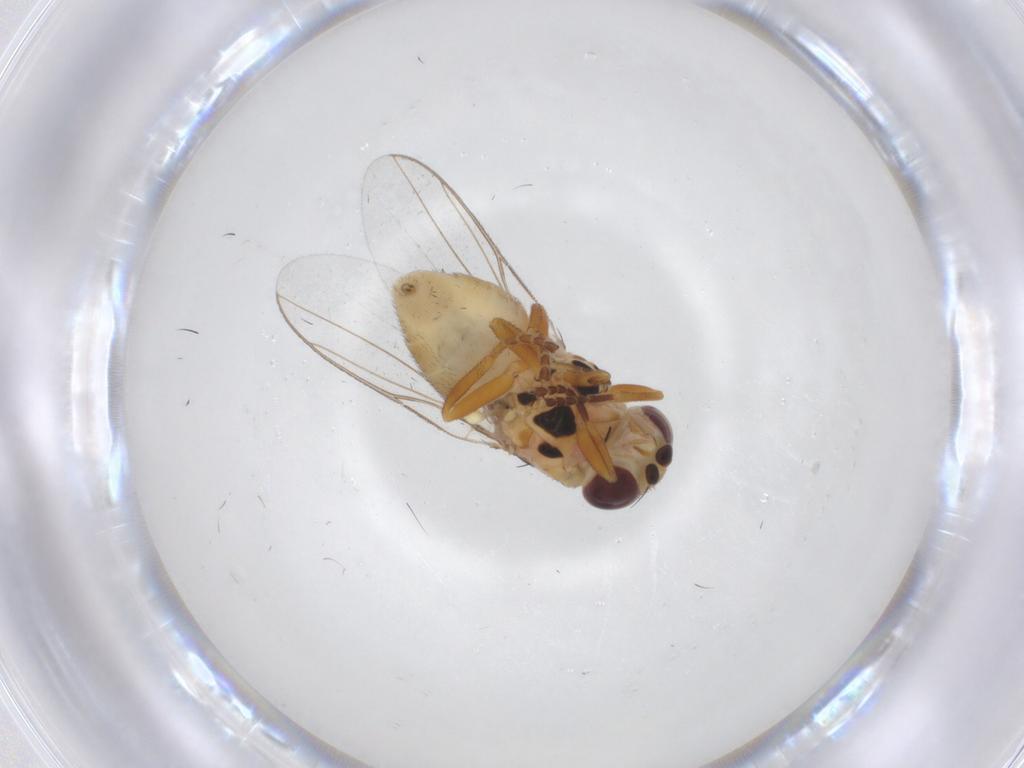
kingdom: Animalia
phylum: Arthropoda
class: Insecta
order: Diptera
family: Chloropidae
